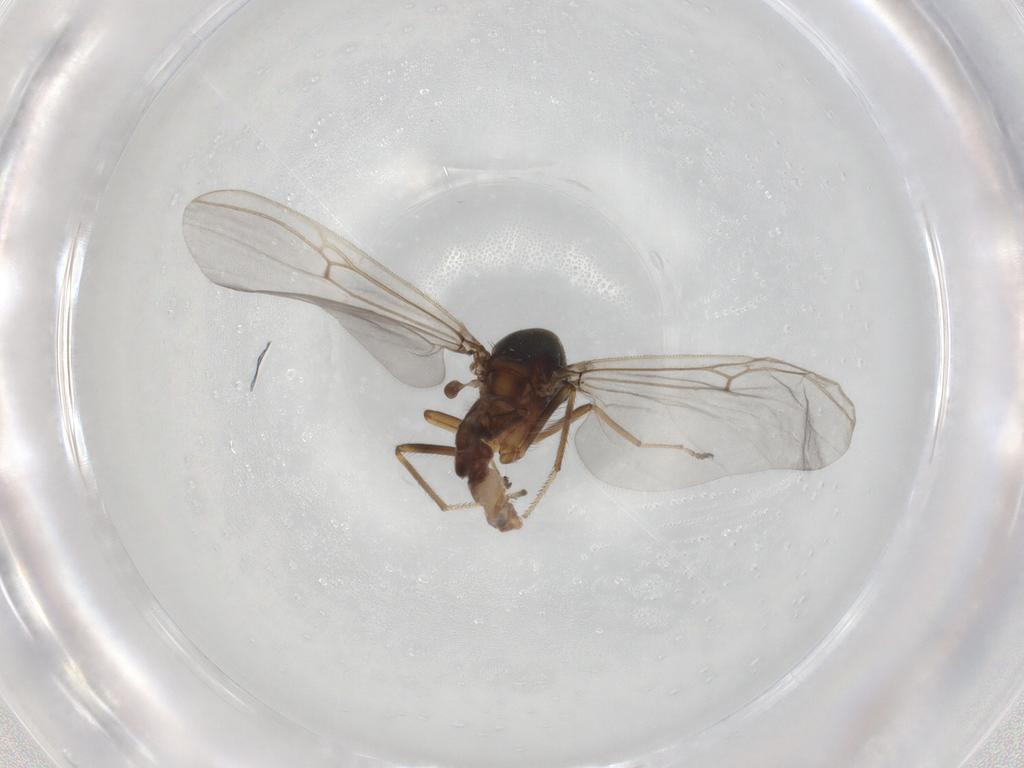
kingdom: Animalia
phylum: Arthropoda
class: Insecta
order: Diptera
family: Ceratopogonidae
